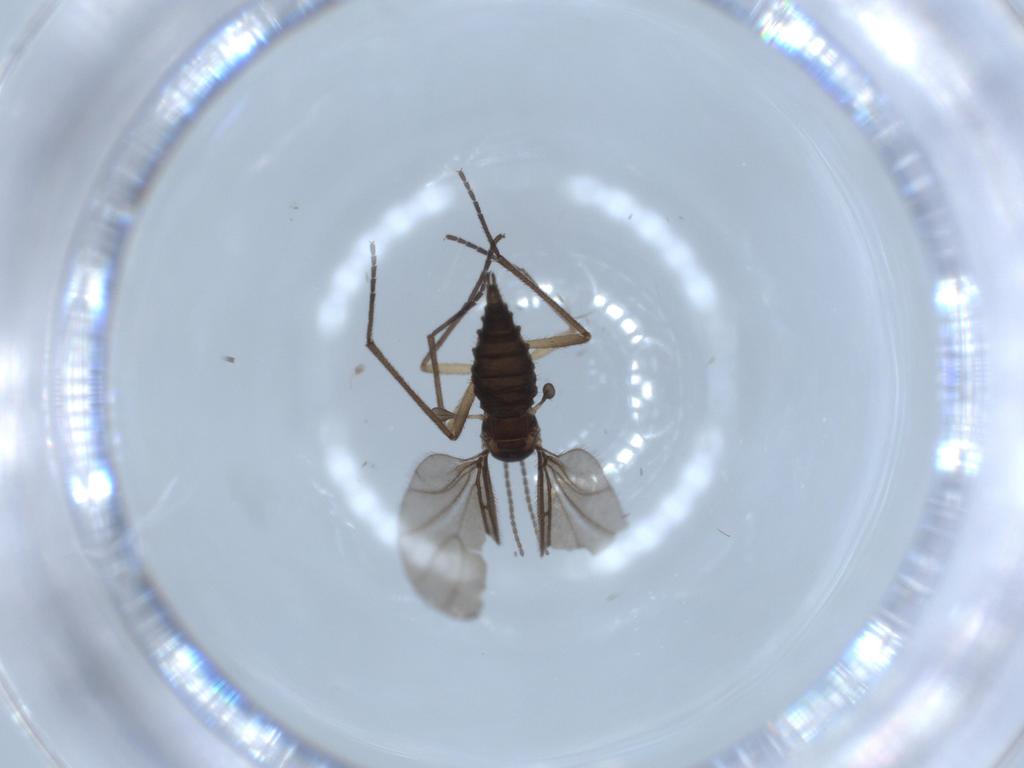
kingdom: Animalia
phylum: Arthropoda
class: Insecta
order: Diptera
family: Sciaridae
